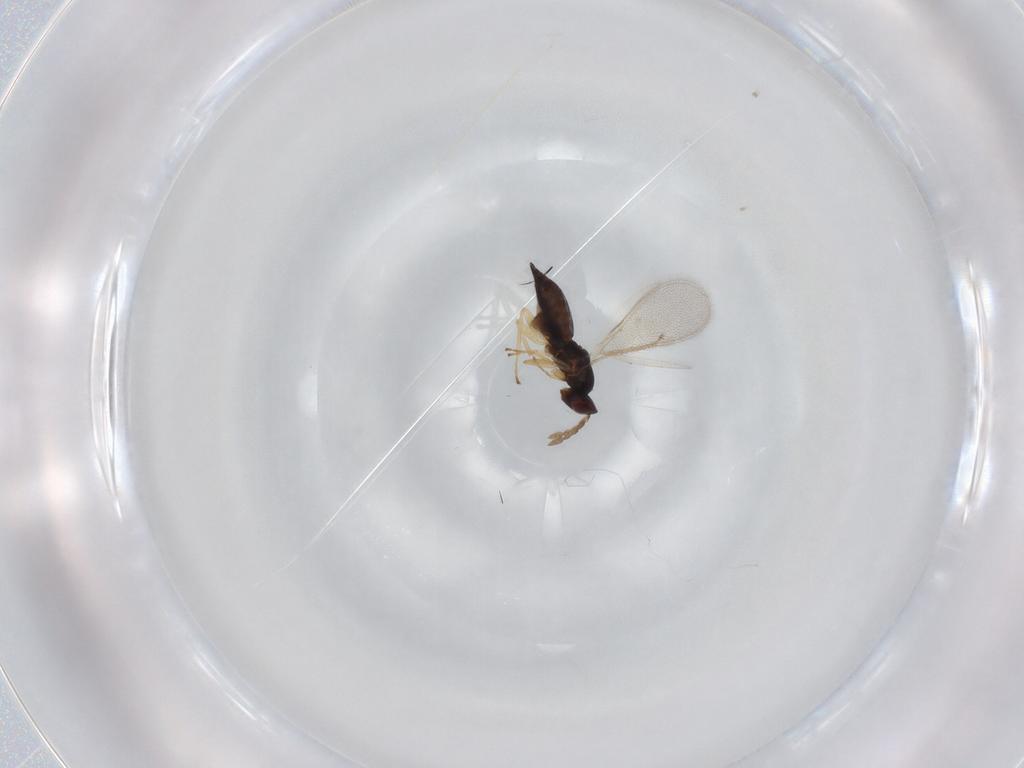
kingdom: Animalia
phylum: Arthropoda
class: Insecta
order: Hymenoptera
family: Eulophidae
